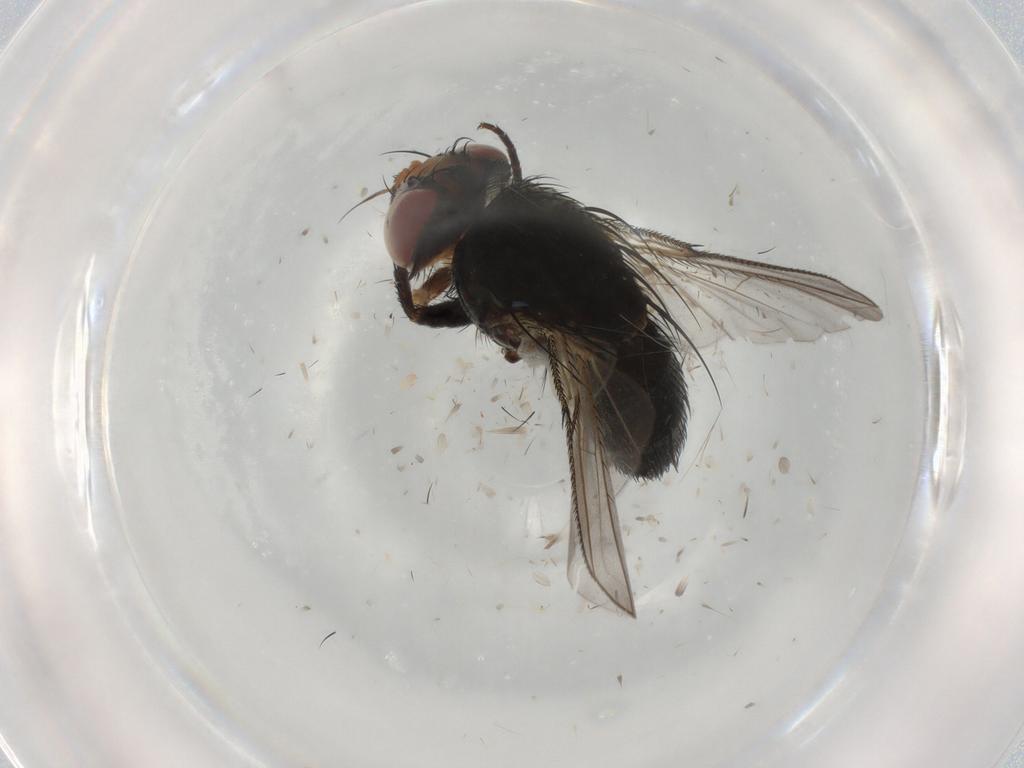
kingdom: Animalia
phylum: Arthropoda
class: Insecta
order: Diptera
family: Tachinidae
